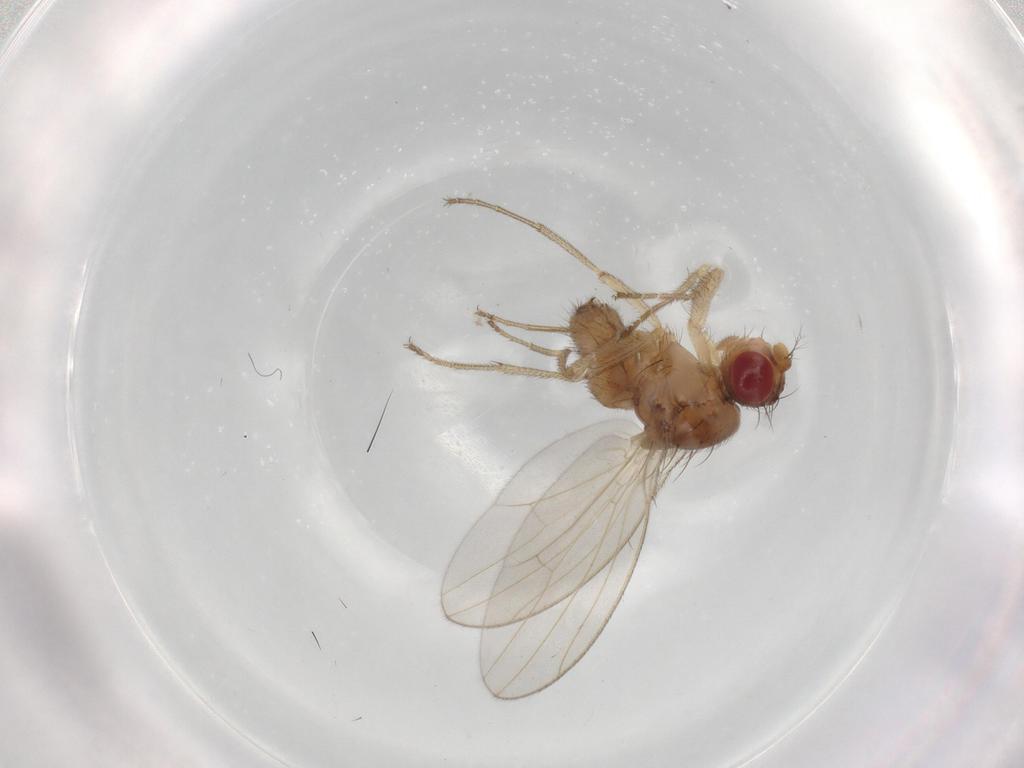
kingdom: Animalia
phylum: Arthropoda
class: Insecta
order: Diptera
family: Drosophilidae
